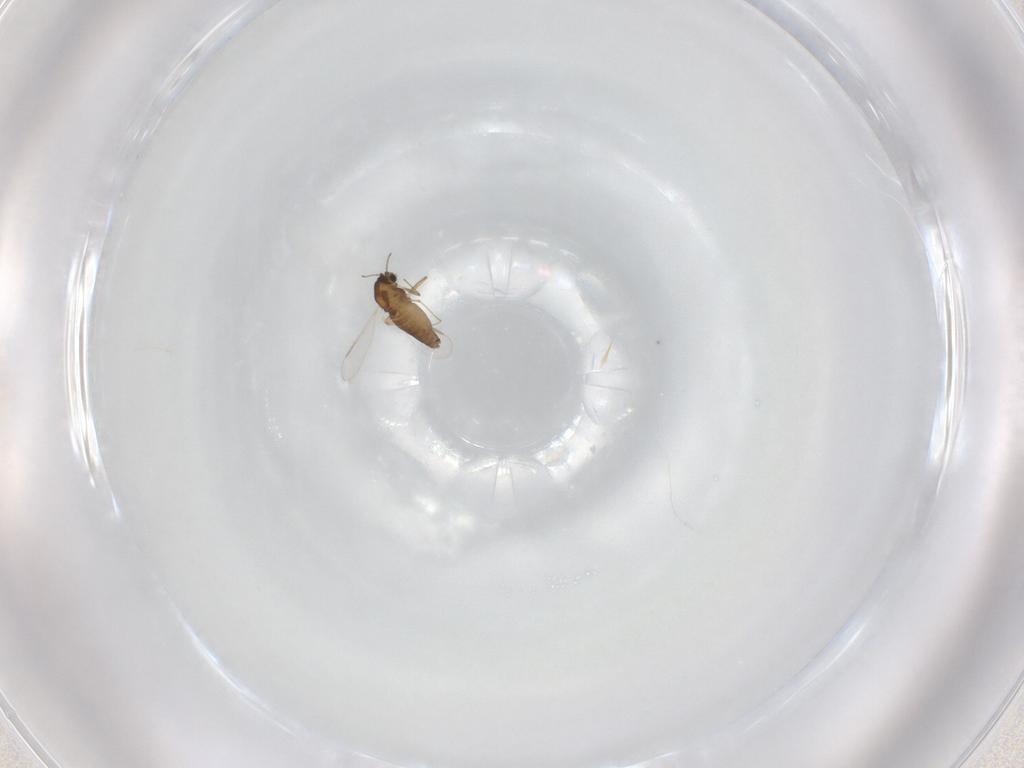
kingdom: Animalia
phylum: Arthropoda
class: Insecta
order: Diptera
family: Chironomidae
